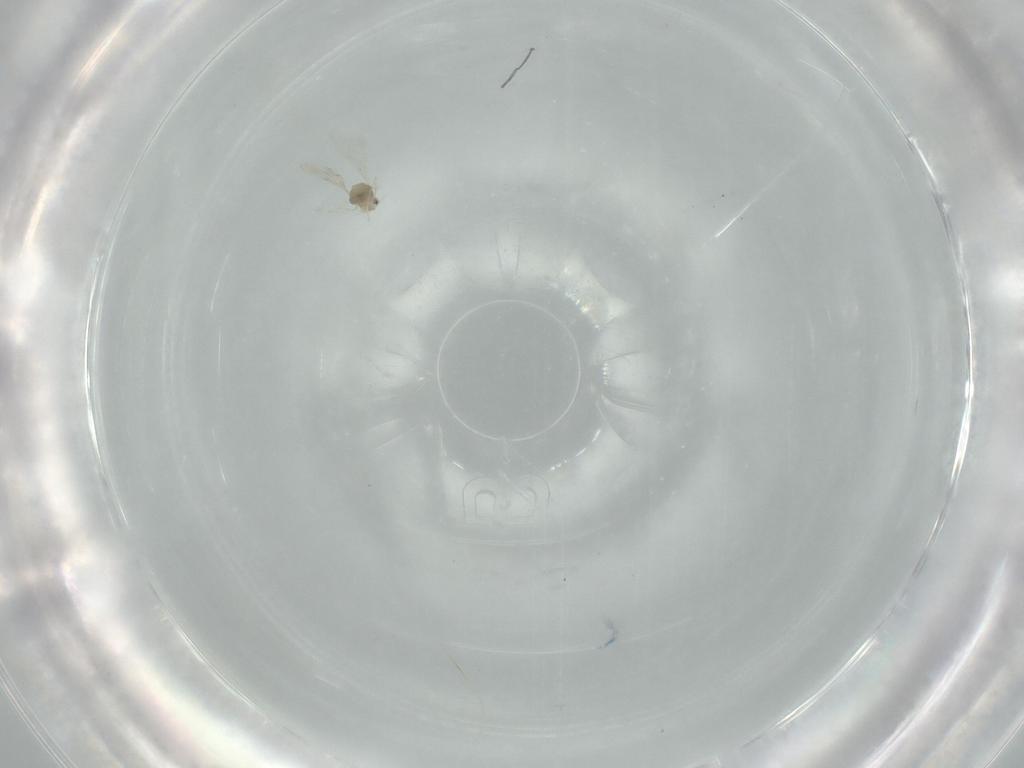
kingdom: Animalia
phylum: Arthropoda
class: Insecta
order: Diptera
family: Cecidomyiidae
